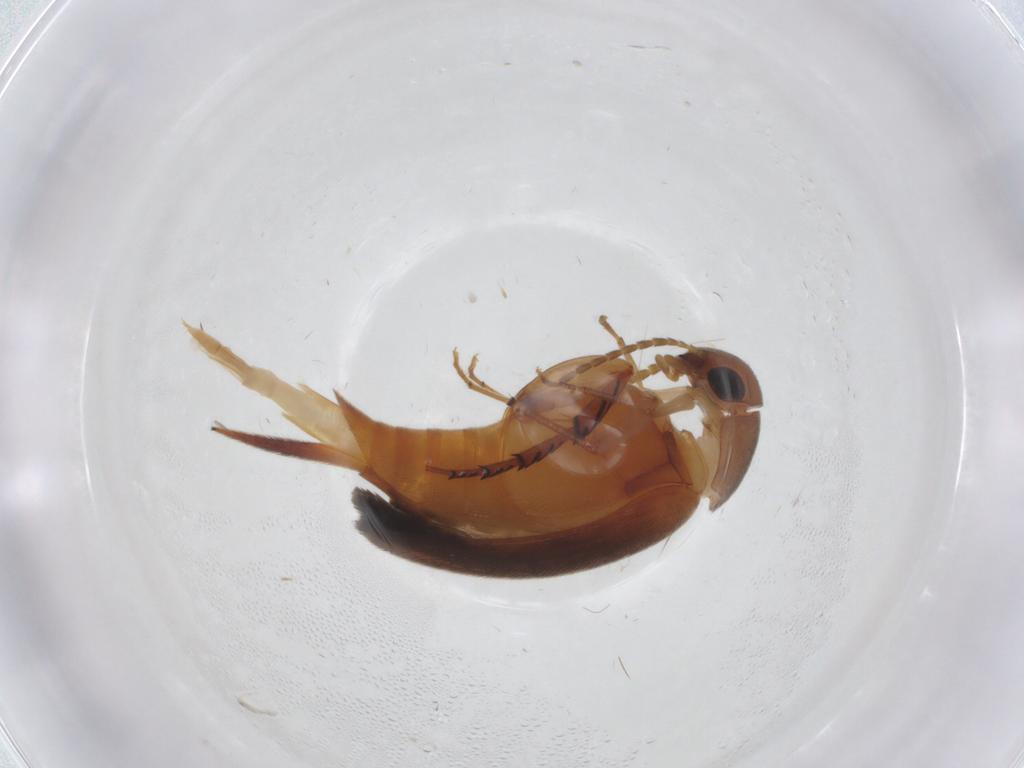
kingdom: Animalia
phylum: Arthropoda
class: Insecta
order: Coleoptera
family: Mordellidae
